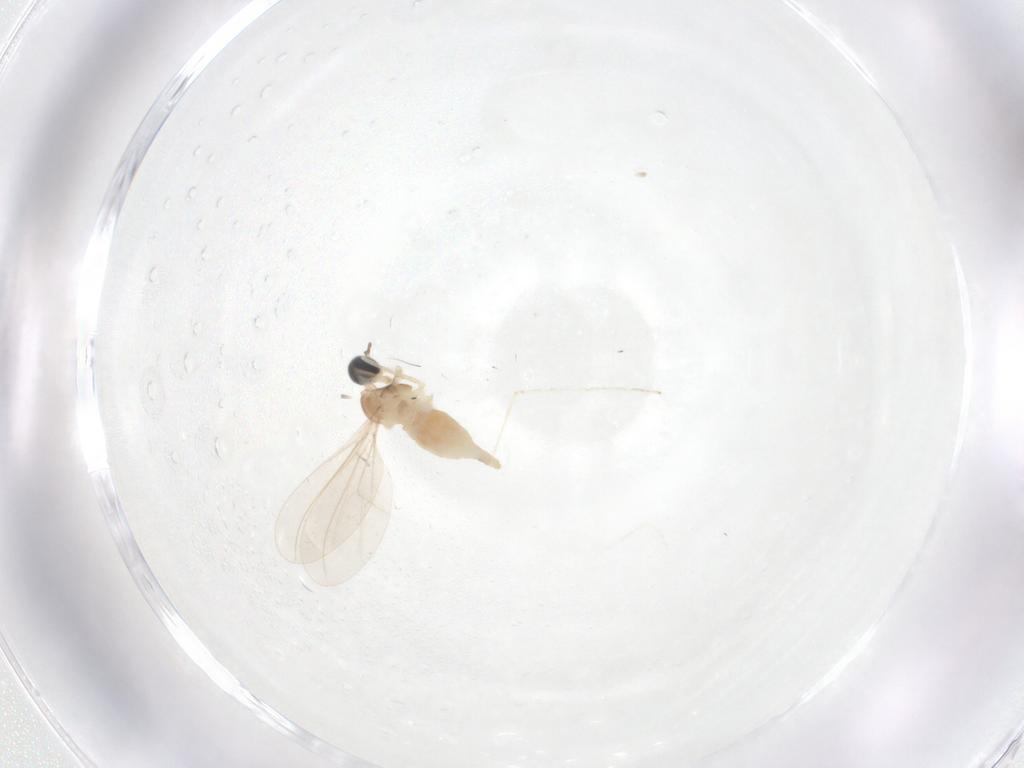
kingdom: Animalia
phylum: Arthropoda
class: Insecta
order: Diptera
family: Cecidomyiidae
